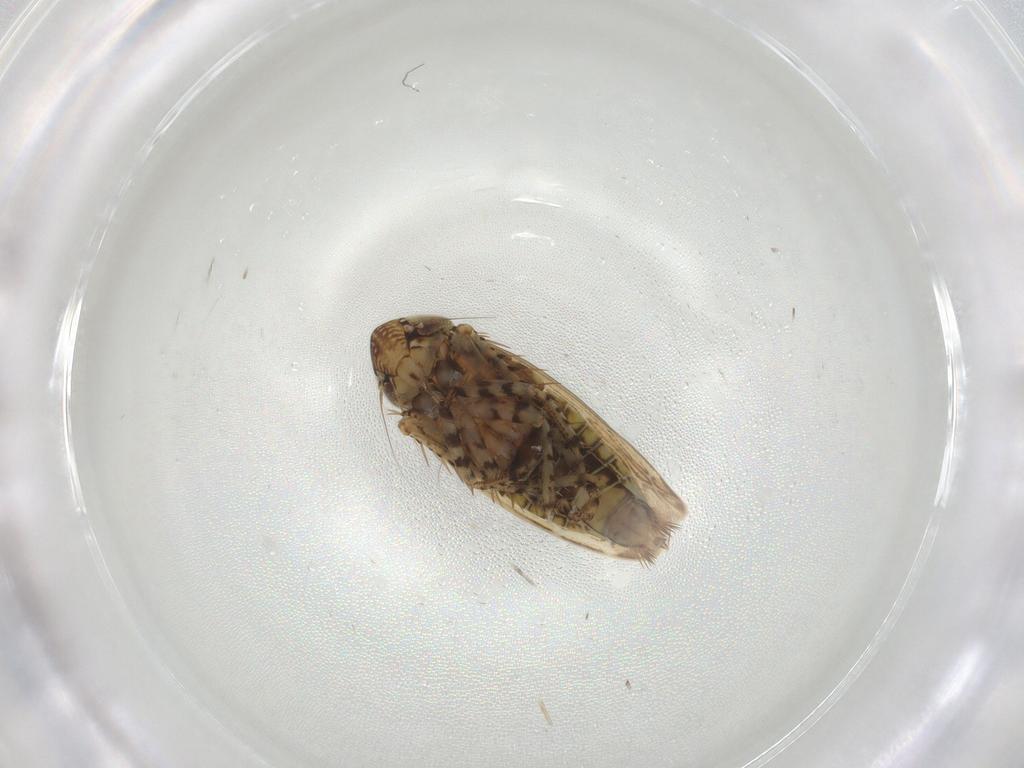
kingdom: Animalia
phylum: Arthropoda
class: Insecta
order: Hemiptera
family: Cicadellidae
